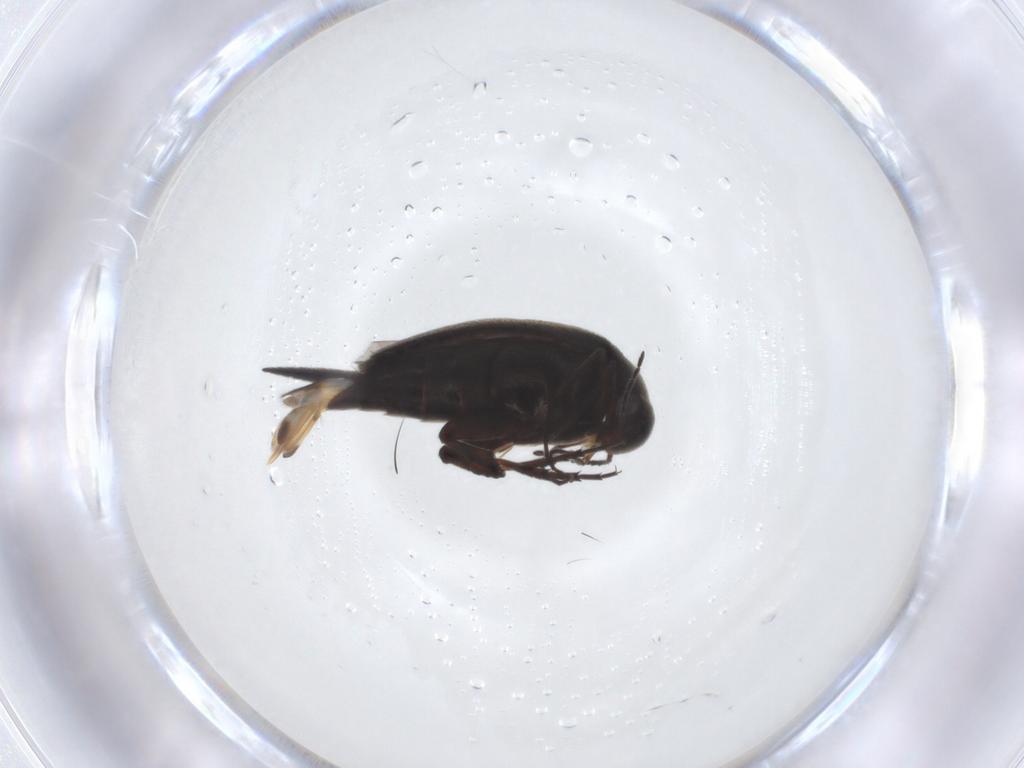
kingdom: Animalia
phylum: Arthropoda
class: Insecta
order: Coleoptera
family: Mordellidae
